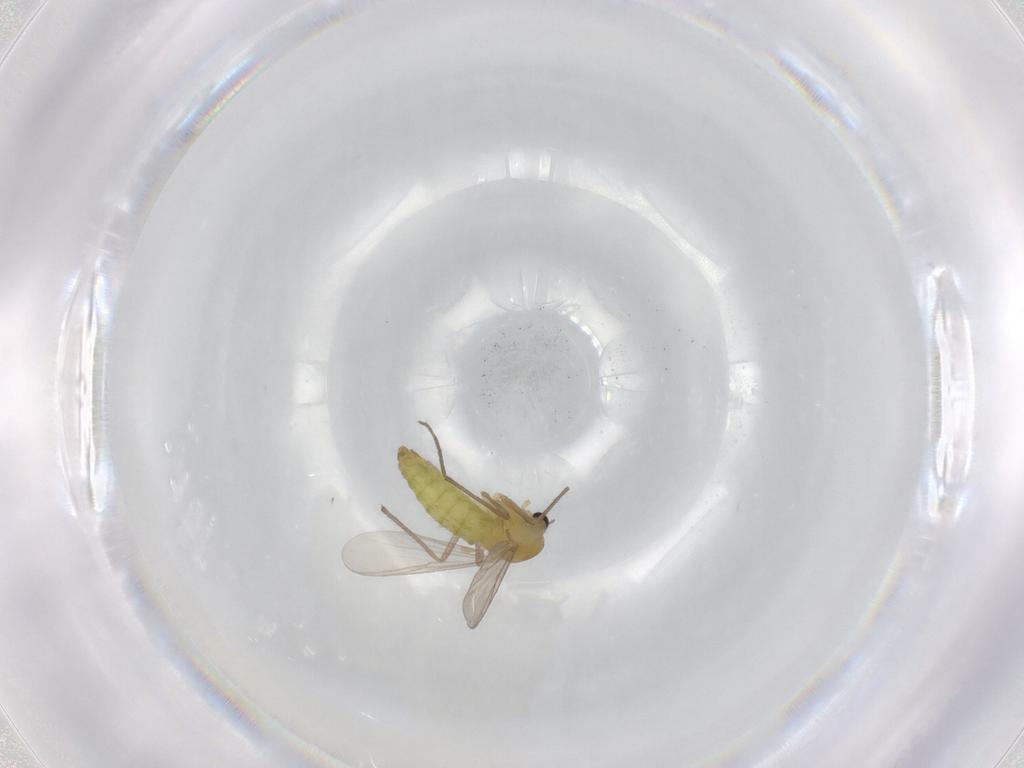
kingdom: Animalia
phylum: Arthropoda
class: Insecta
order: Diptera
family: Chironomidae
